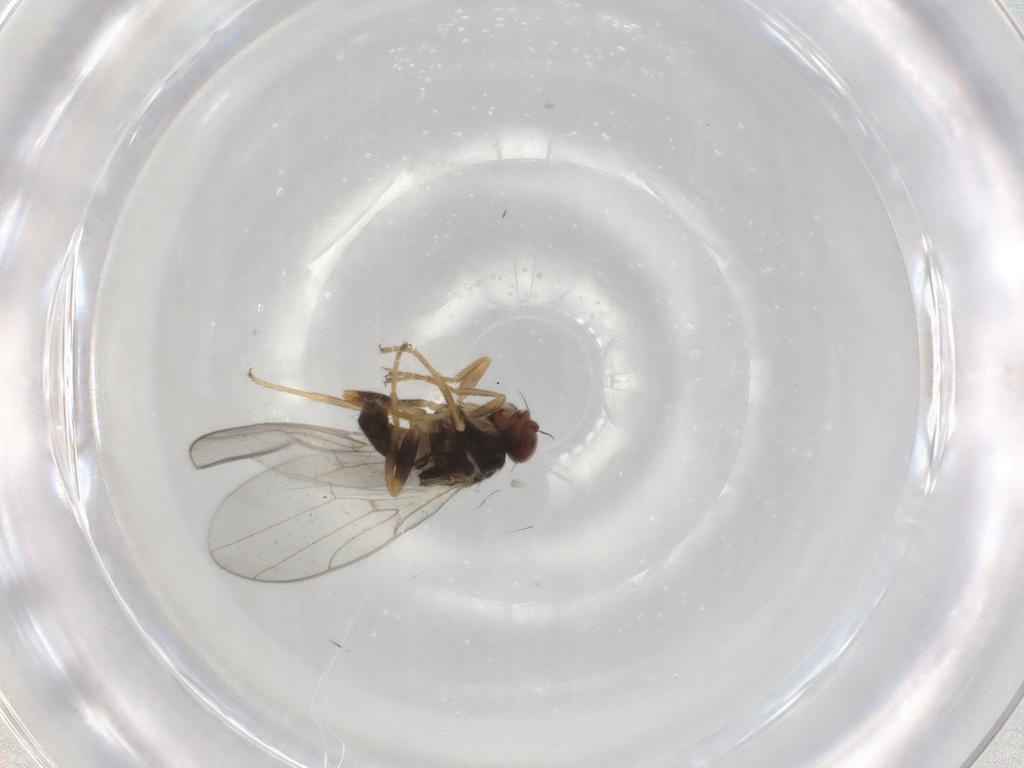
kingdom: Animalia
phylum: Arthropoda
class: Insecta
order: Diptera
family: Chloropidae
